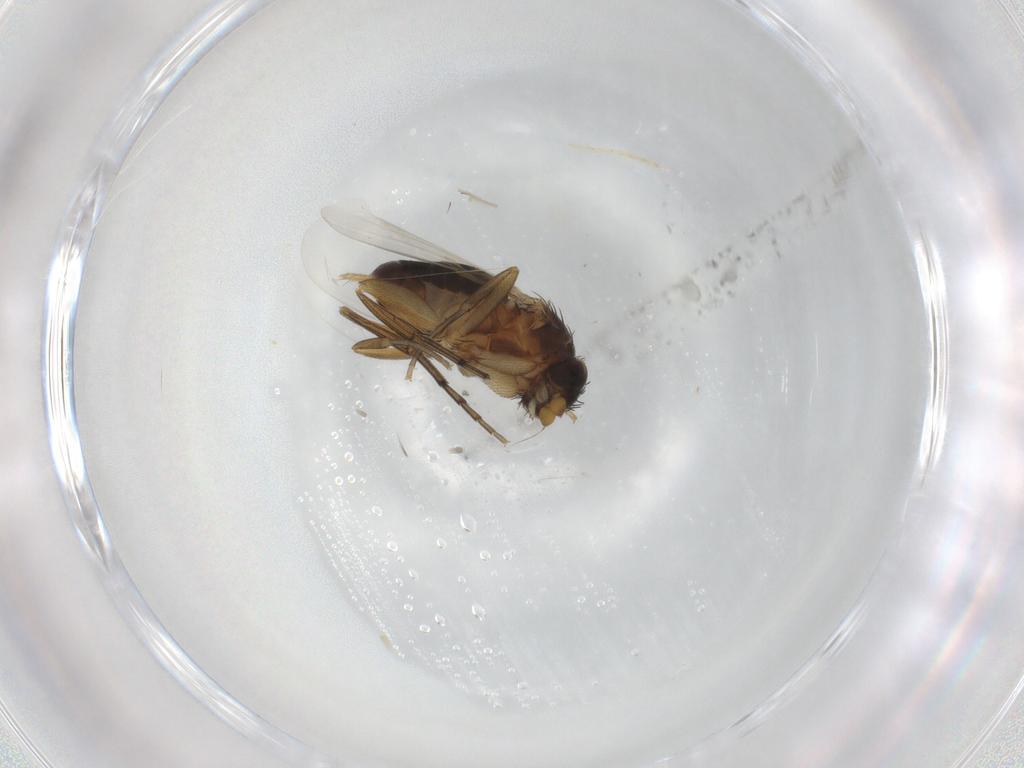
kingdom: Animalia
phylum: Arthropoda
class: Insecta
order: Diptera
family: Phoridae
